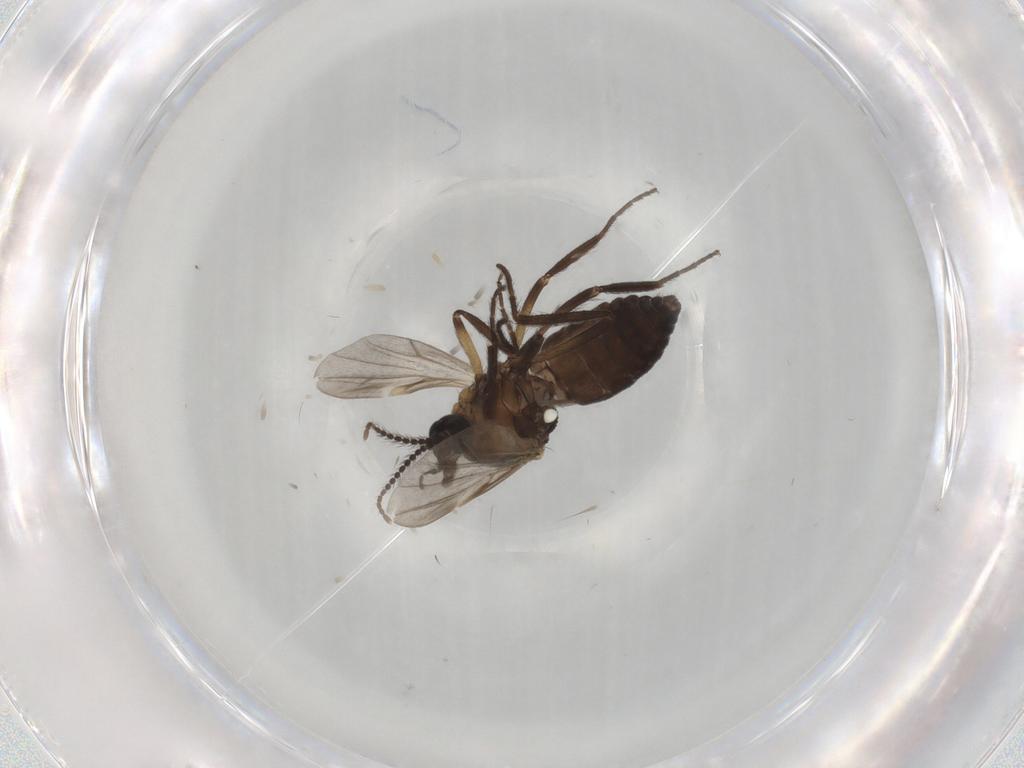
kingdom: Animalia
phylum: Arthropoda
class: Insecta
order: Diptera
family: Ceratopogonidae
